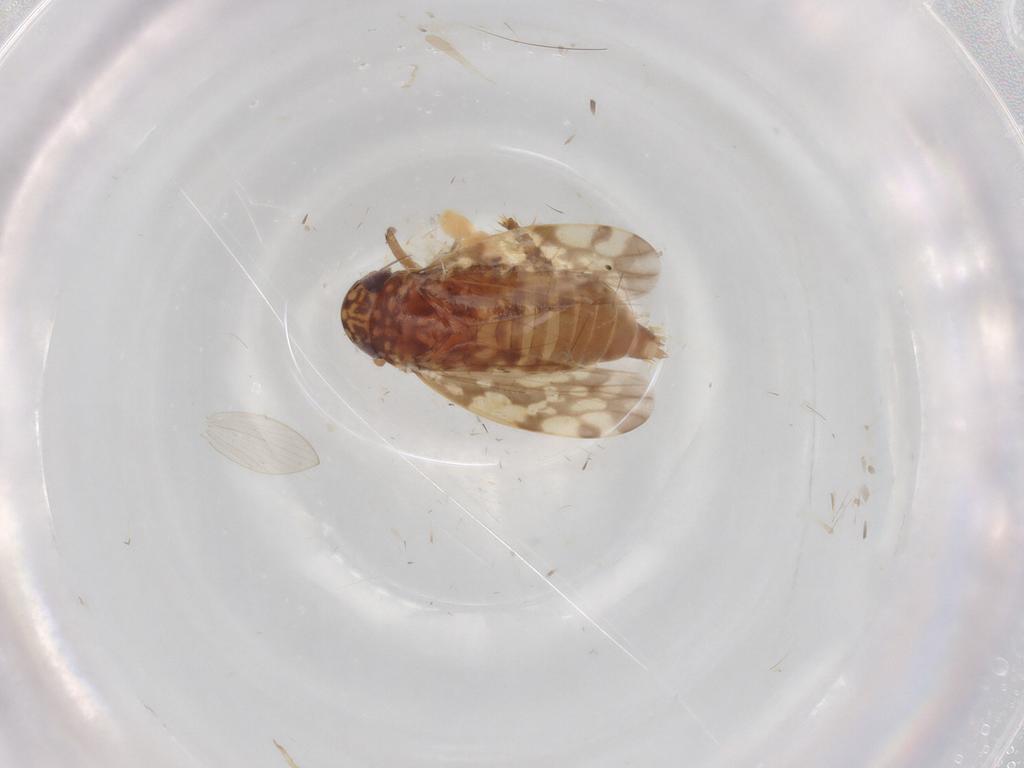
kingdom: Animalia
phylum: Arthropoda
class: Insecta
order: Hemiptera
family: Cicadellidae
